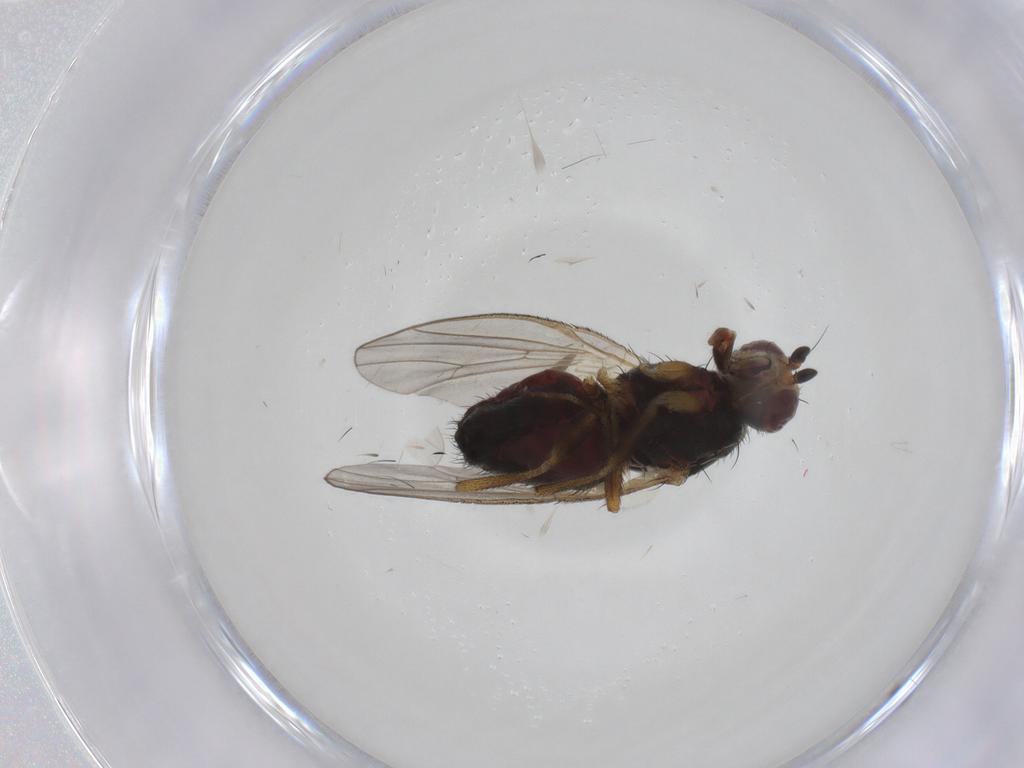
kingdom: Animalia
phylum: Arthropoda
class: Insecta
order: Diptera
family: Heleomyzidae
